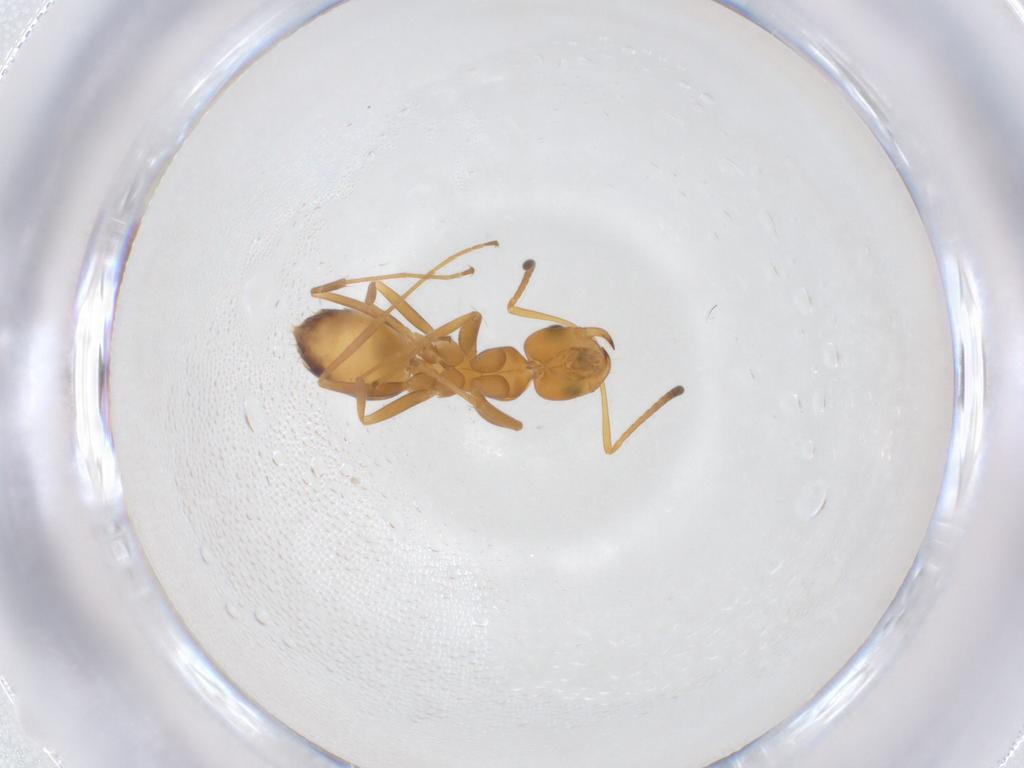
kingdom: Animalia
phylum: Arthropoda
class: Insecta
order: Hymenoptera
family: Formicidae
